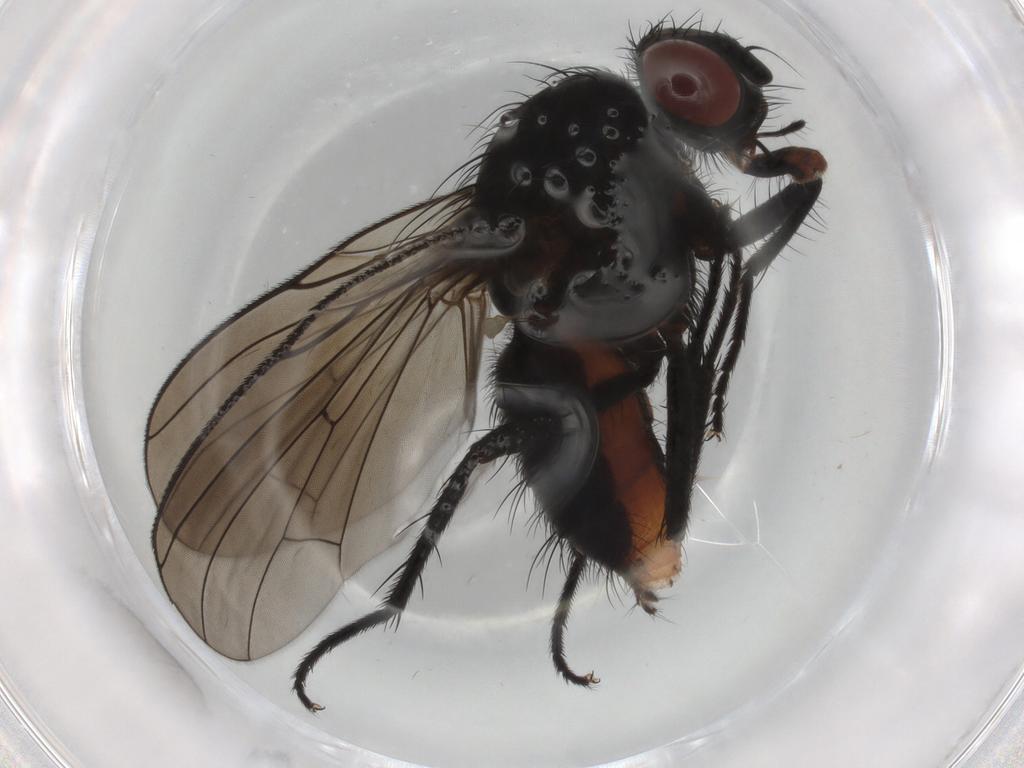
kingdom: Animalia
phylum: Arthropoda
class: Insecta
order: Diptera
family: Anthomyiidae
